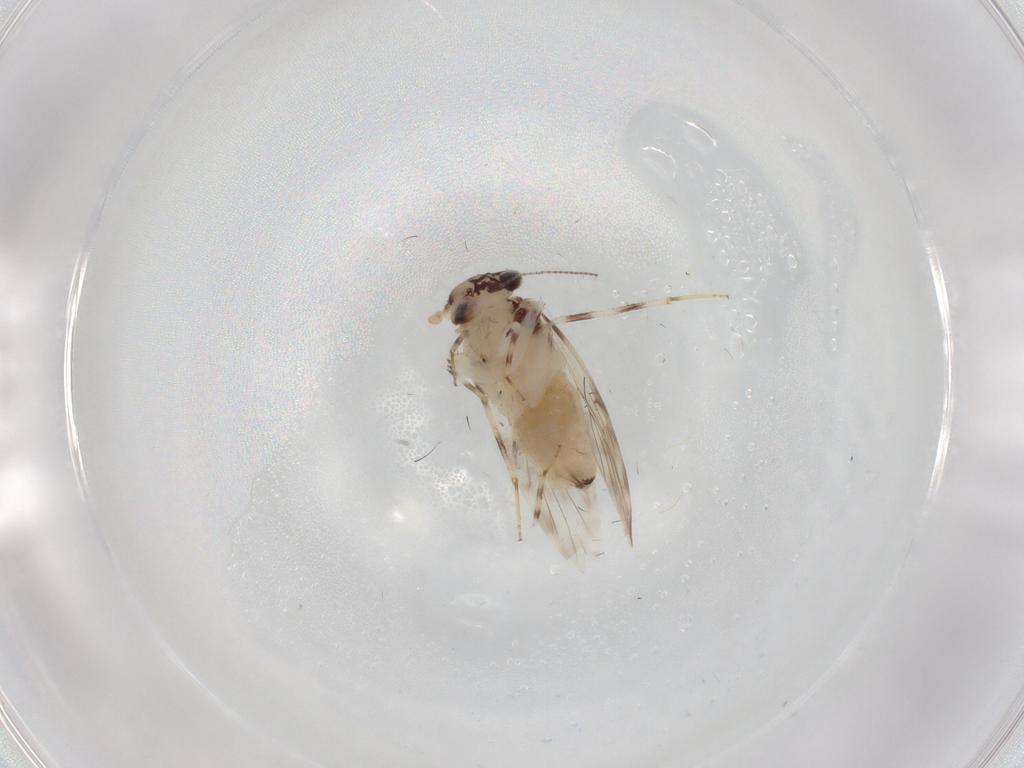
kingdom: Animalia
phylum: Arthropoda
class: Insecta
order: Psocodea
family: Lepidopsocidae
